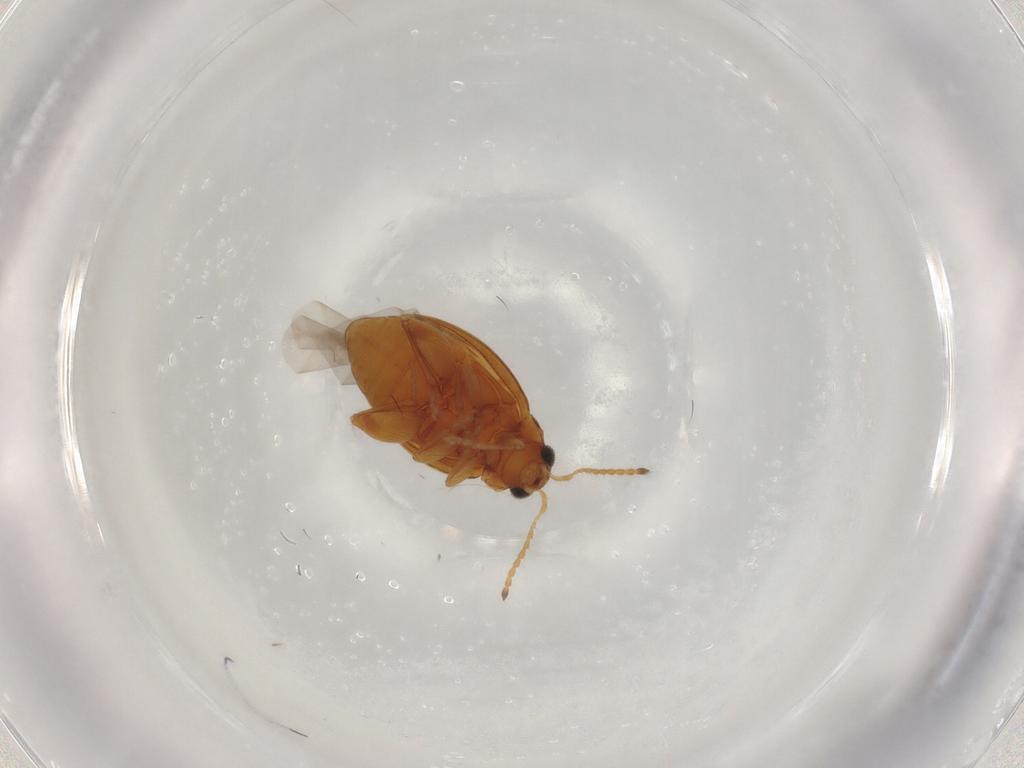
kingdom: Animalia
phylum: Arthropoda
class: Insecta
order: Coleoptera
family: Chrysomelidae
